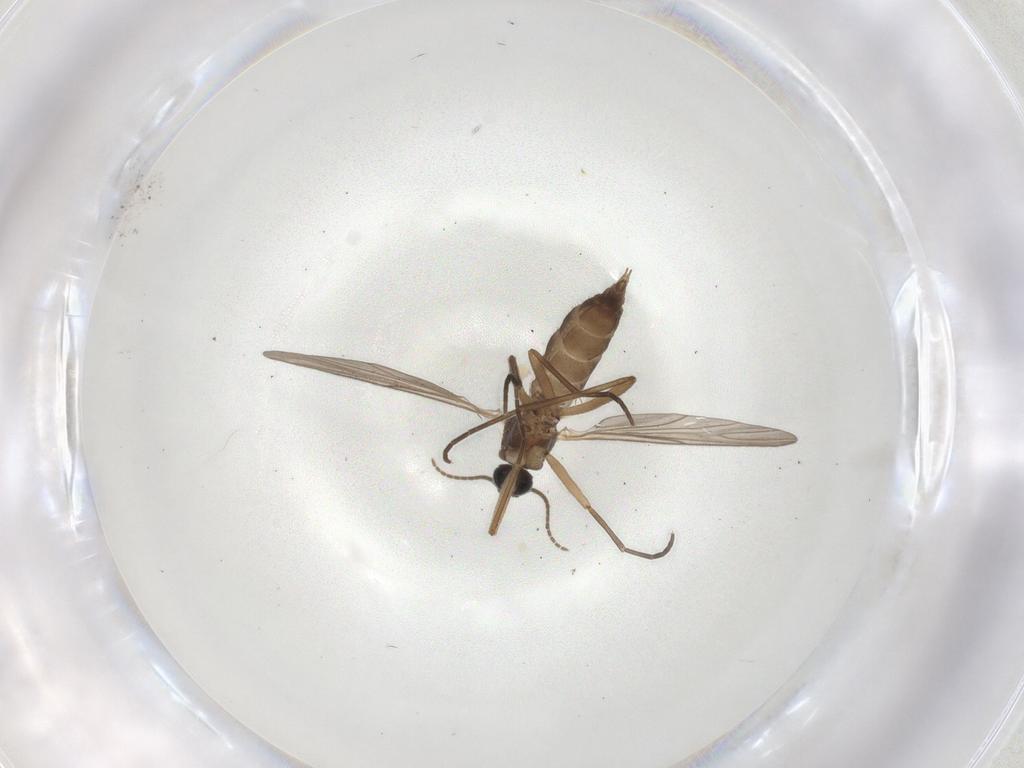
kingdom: Animalia
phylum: Arthropoda
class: Insecta
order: Diptera
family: Sciaridae
